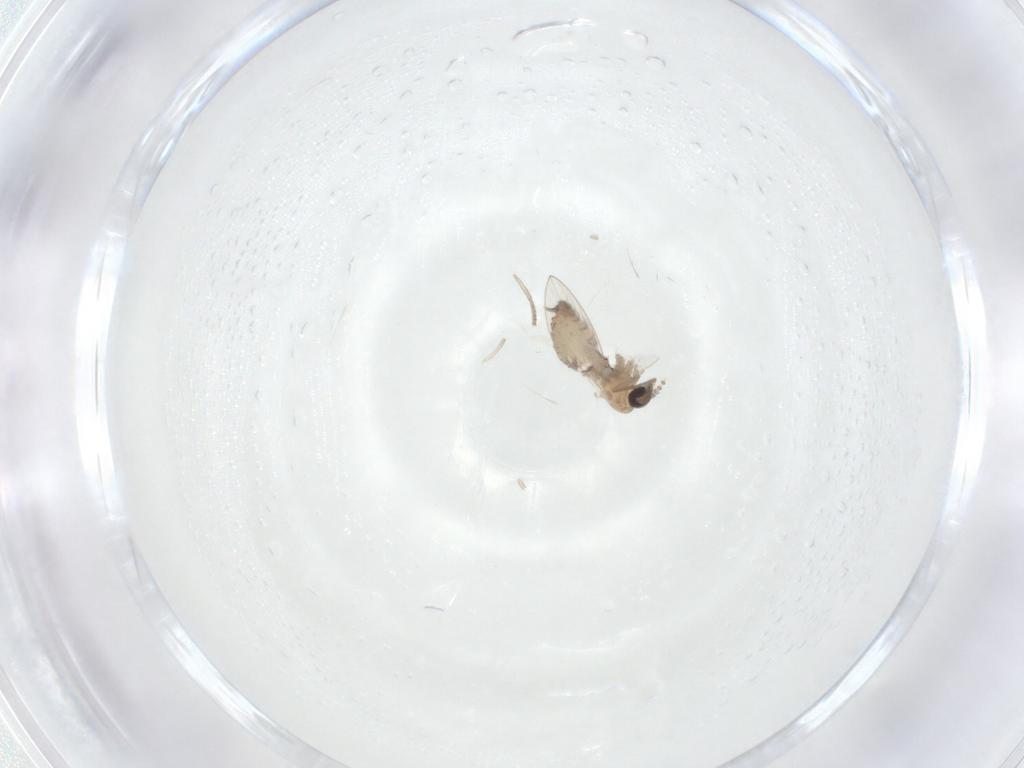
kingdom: Animalia
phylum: Arthropoda
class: Insecta
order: Diptera
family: Psychodidae
